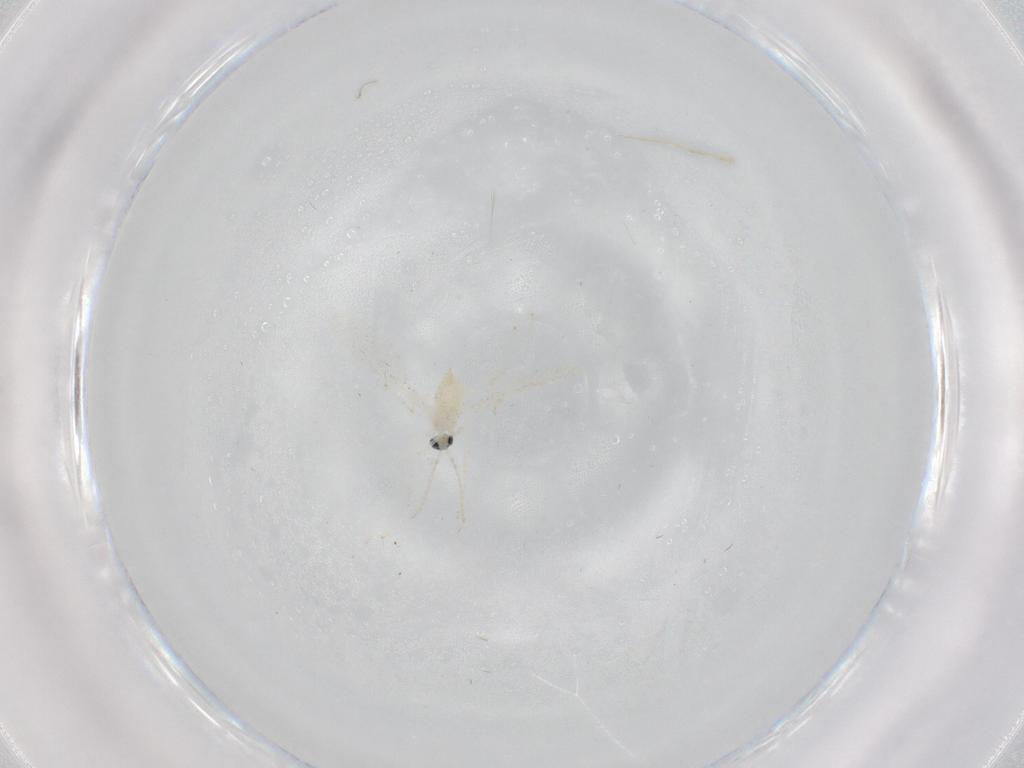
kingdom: Animalia
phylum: Arthropoda
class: Insecta
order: Diptera
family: Cecidomyiidae
